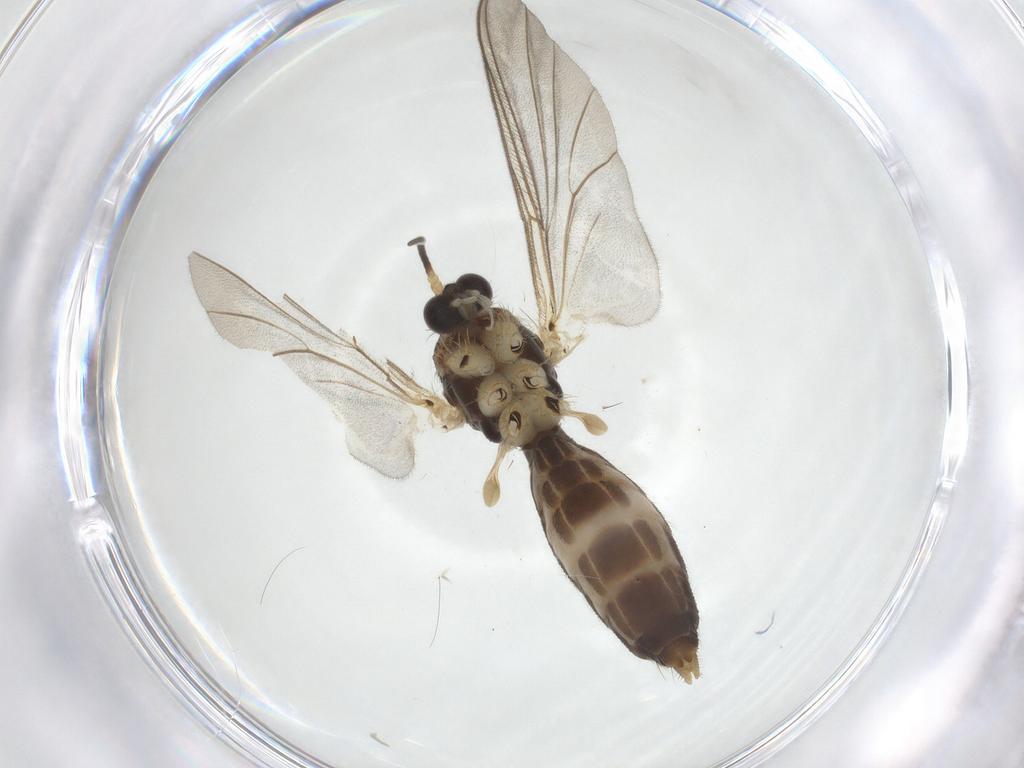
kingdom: Animalia
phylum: Arthropoda
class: Insecta
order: Diptera
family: Mycetophilidae
